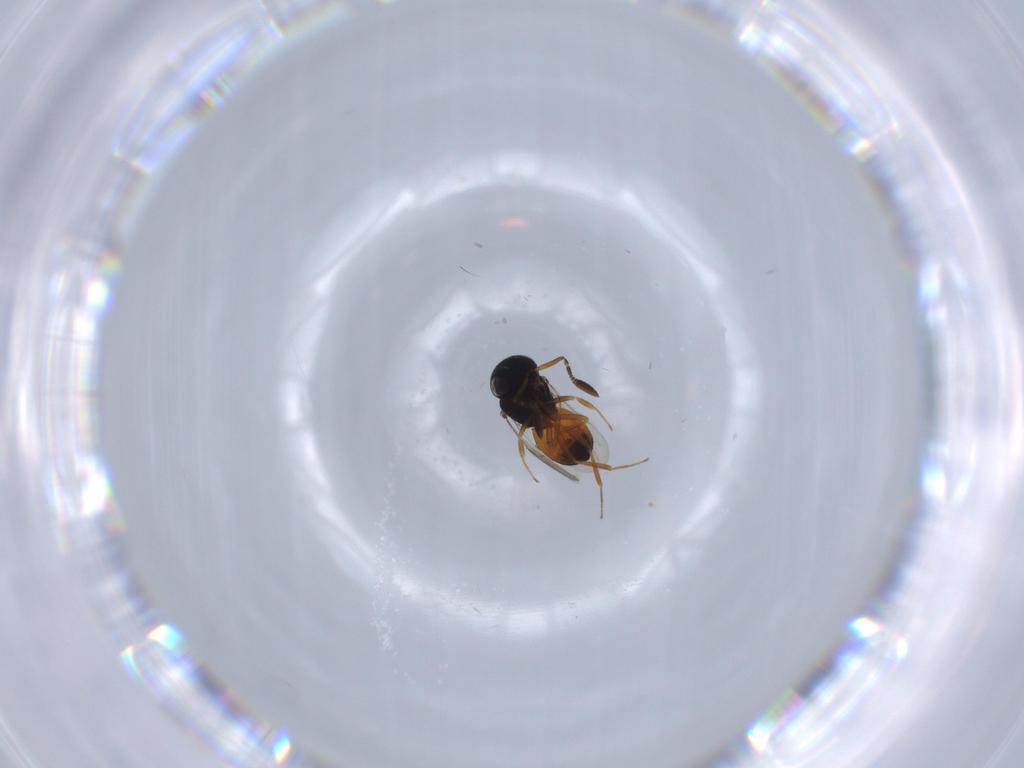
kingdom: Animalia
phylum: Arthropoda
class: Insecta
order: Hymenoptera
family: Scelionidae
